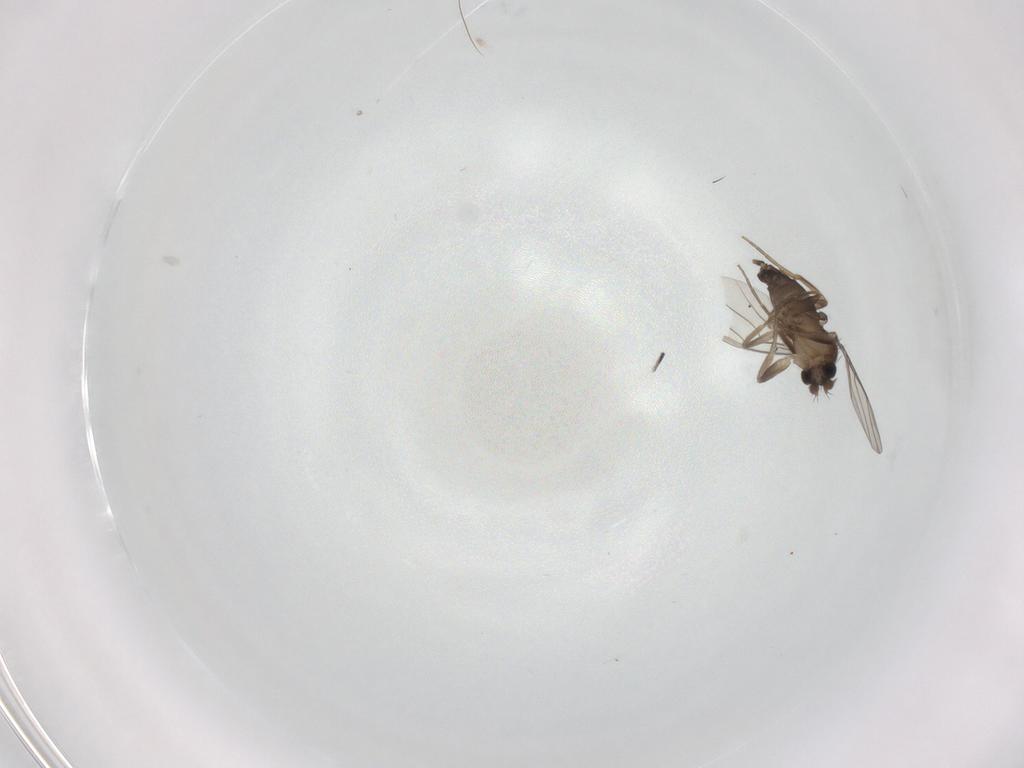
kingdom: Animalia
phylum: Arthropoda
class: Insecta
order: Diptera
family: Phoridae
